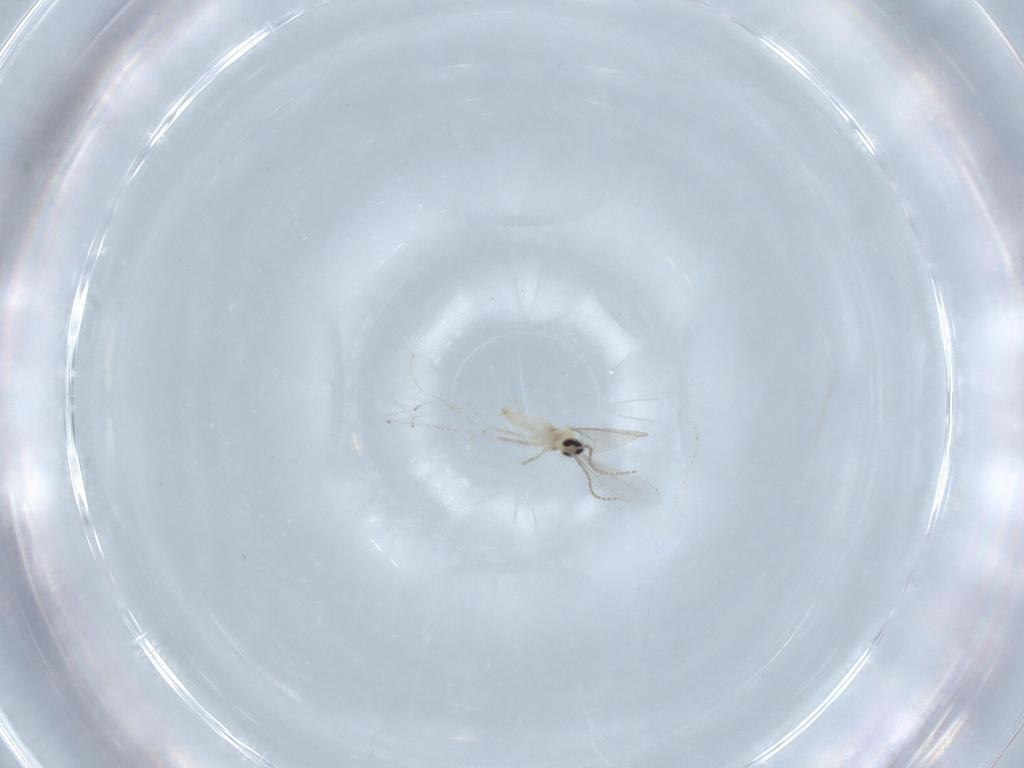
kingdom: Animalia
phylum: Arthropoda
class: Insecta
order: Diptera
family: Cecidomyiidae
